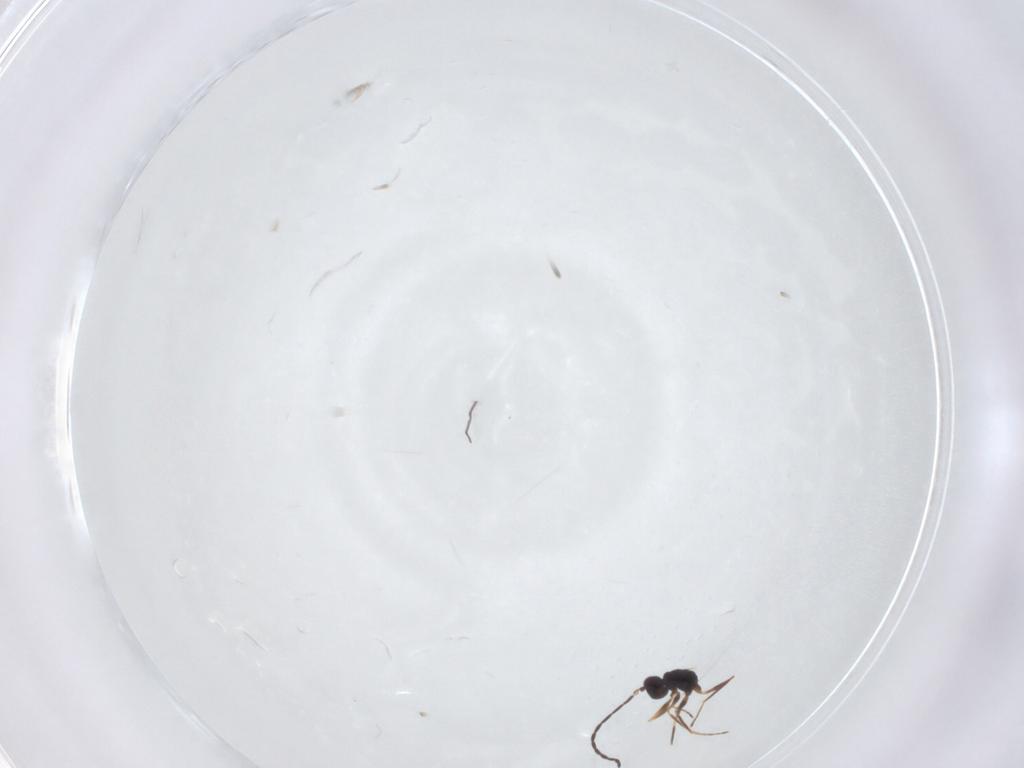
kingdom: Animalia
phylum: Arthropoda
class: Insecta
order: Hymenoptera
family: Mymaridae
